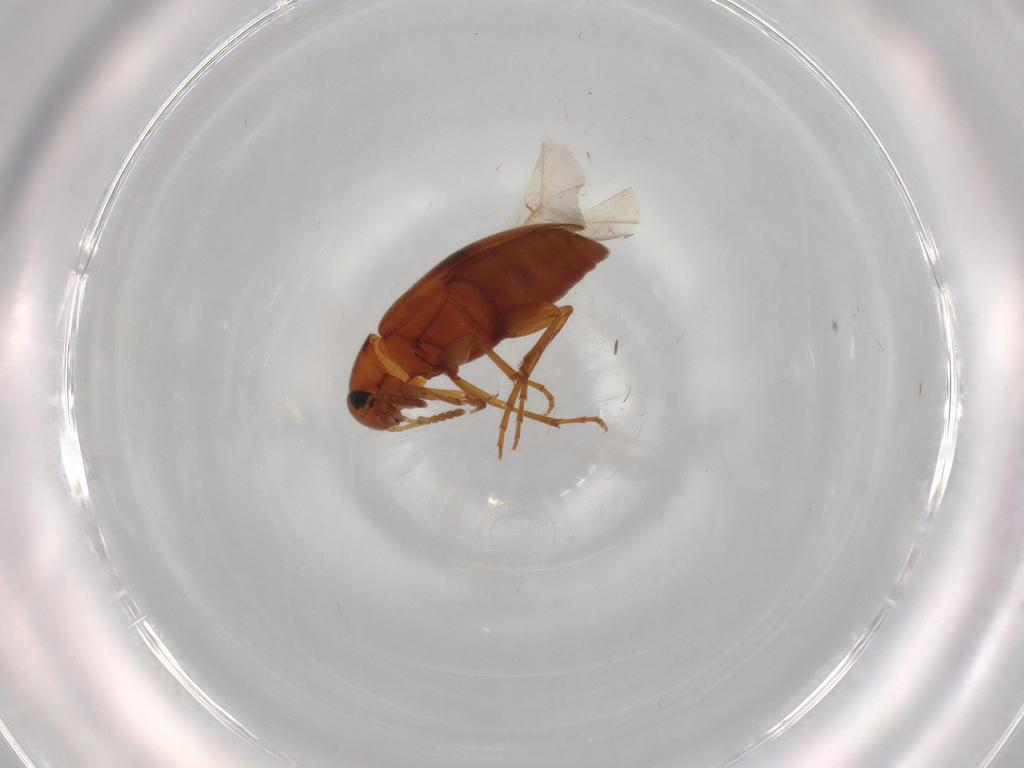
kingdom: Animalia
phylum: Arthropoda
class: Insecta
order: Coleoptera
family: Scraptiidae
